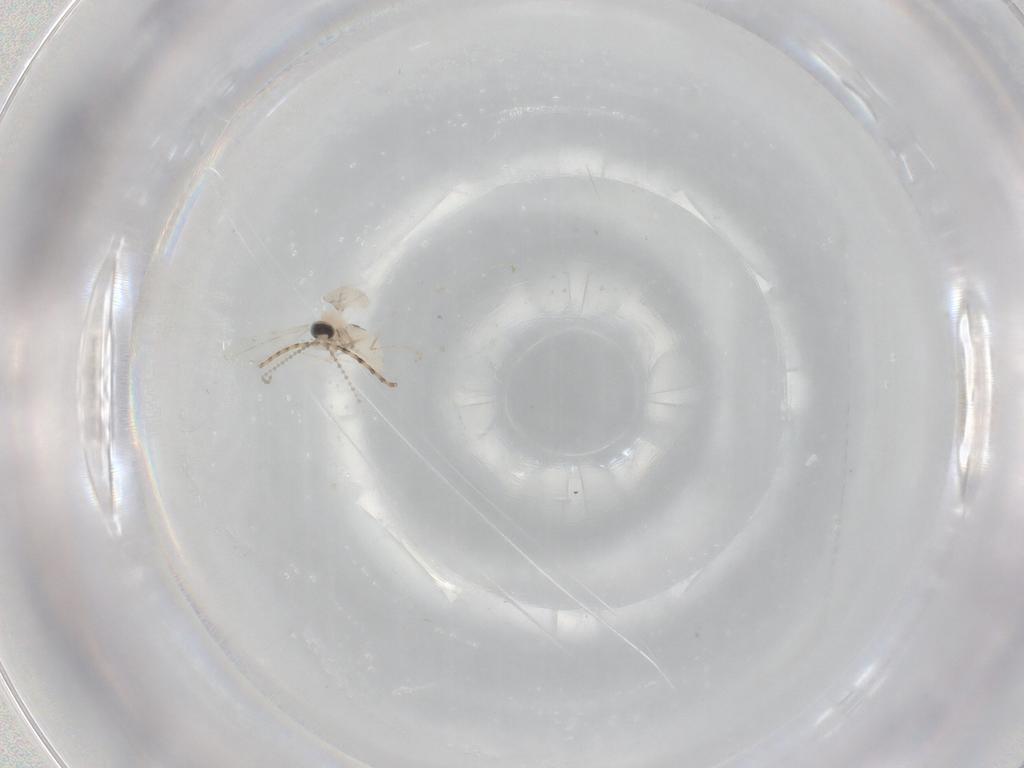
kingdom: Animalia
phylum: Arthropoda
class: Insecta
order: Diptera
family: Cecidomyiidae
